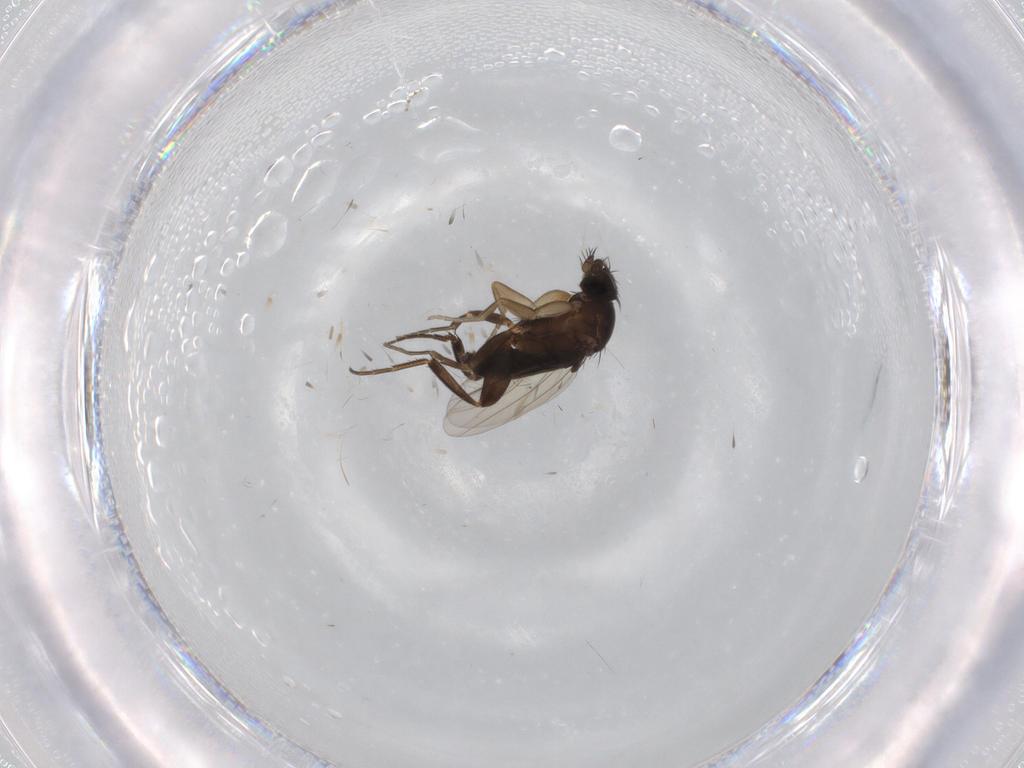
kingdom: Animalia
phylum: Arthropoda
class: Insecta
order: Diptera
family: Phoridae
